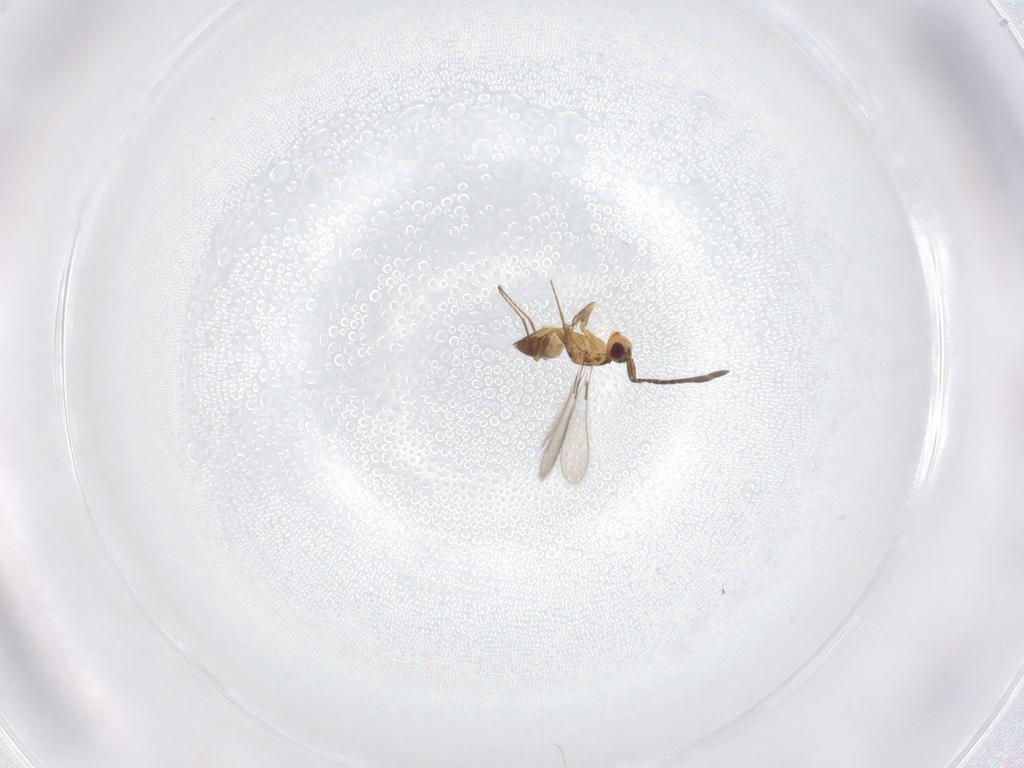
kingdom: Animalia
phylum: Arthropoda
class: Insecta
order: Hymenoptera
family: Mymaridae
